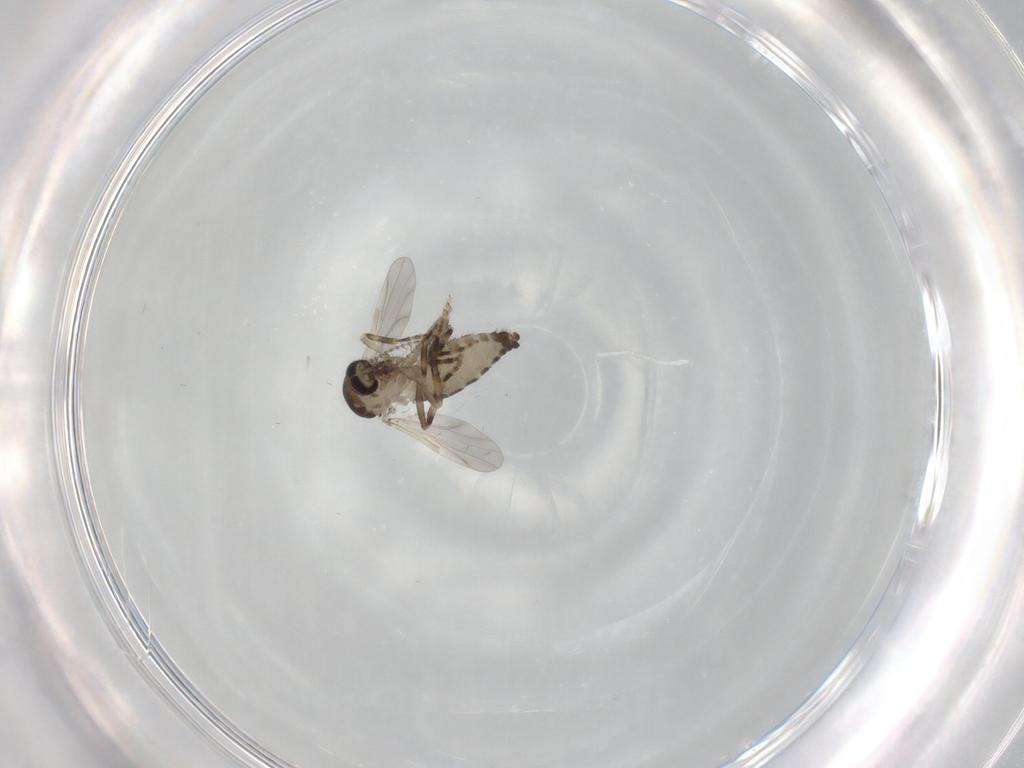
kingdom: Animalia
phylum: Arthropoda
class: Insecta
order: Diptera
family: Ceratopogonidae
